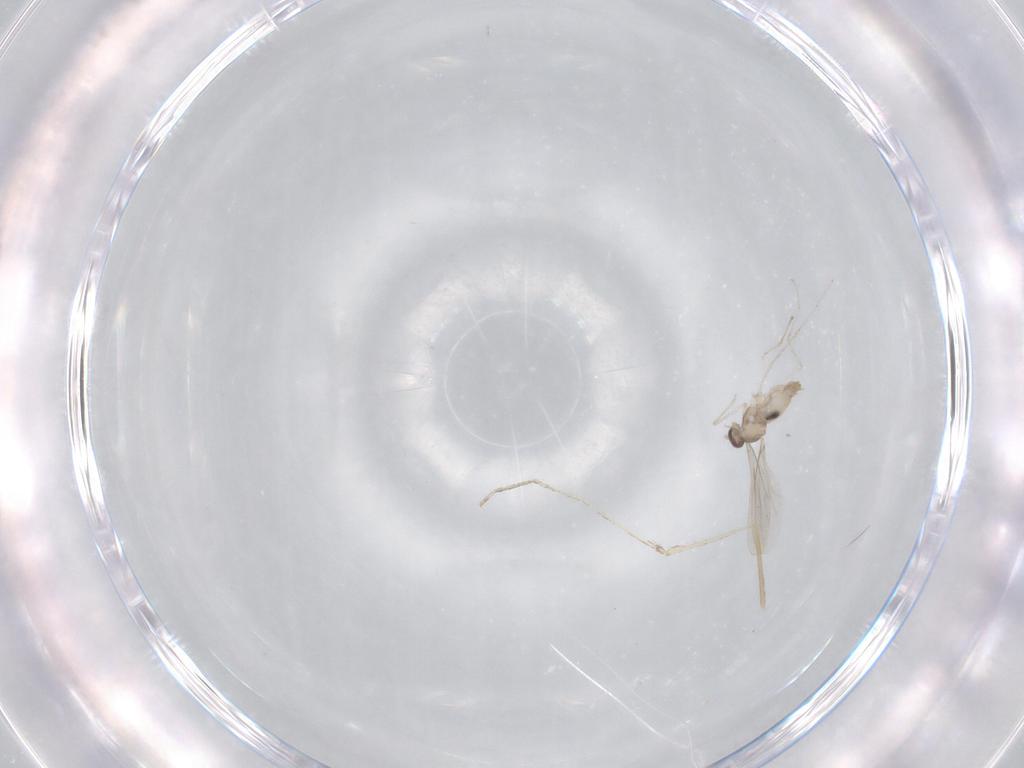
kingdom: Animalia
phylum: Arthropoda
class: Insecta
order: Diptera
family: Cecidomyiidae
